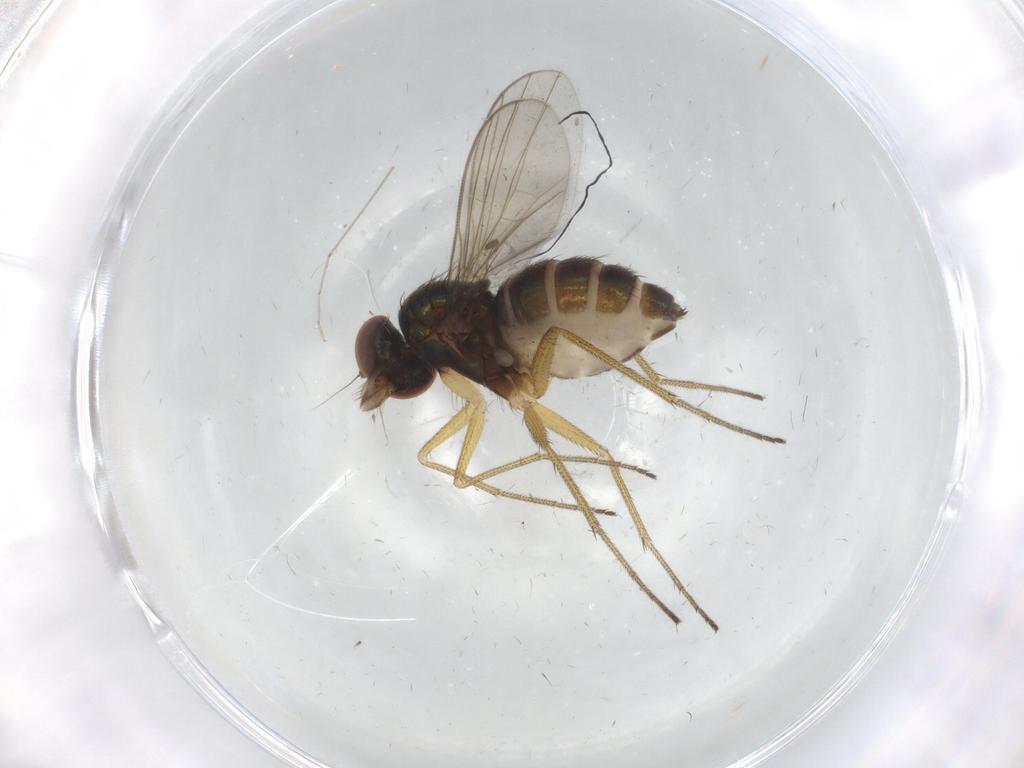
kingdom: Animalia
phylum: Arthropoda
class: Insecta
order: Diptera
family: Dolichopodidae
